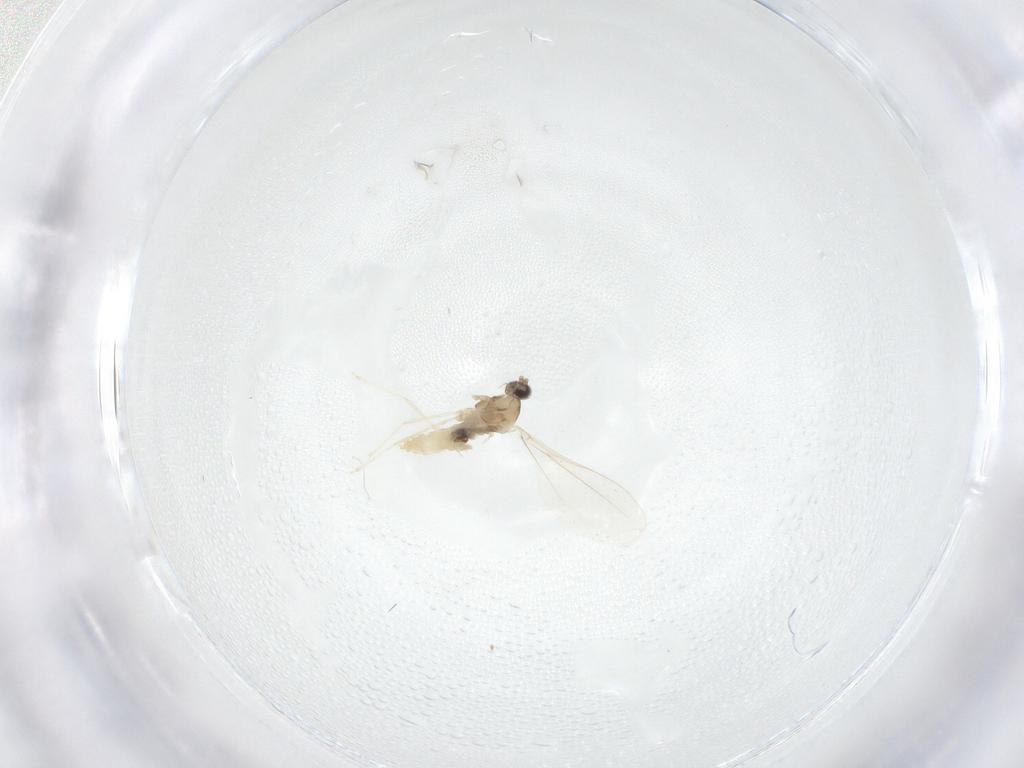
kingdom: Animalia
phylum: Arthropoda
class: Insecta
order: Diptera
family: Cecidomyiidae
